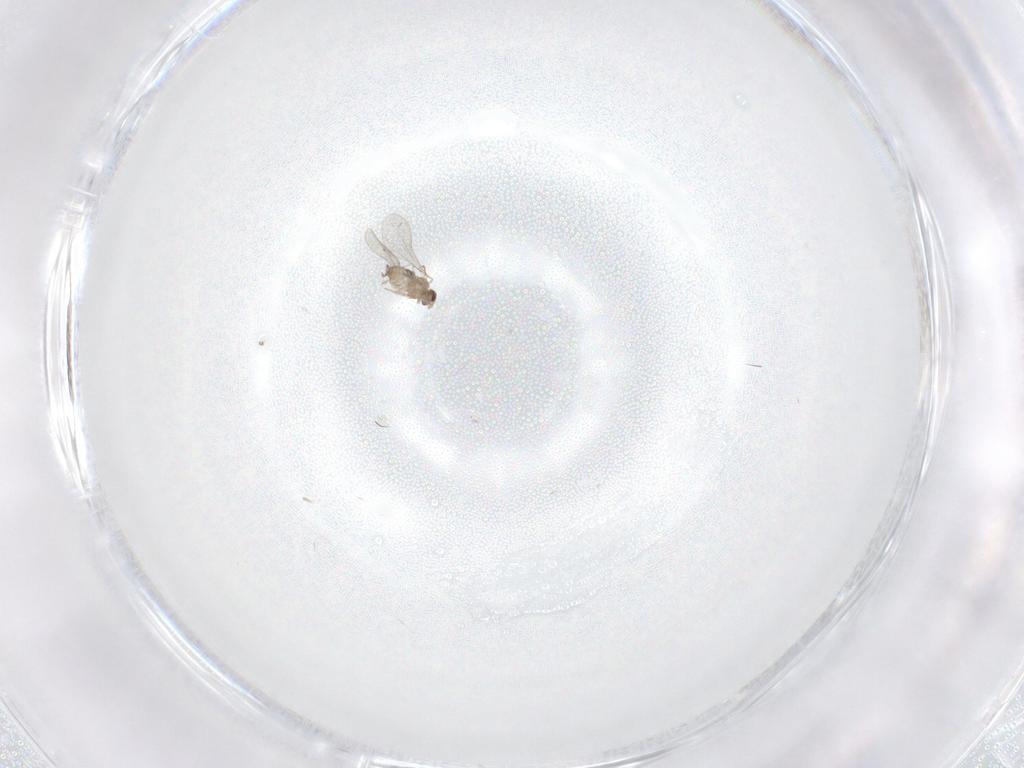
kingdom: Animalia
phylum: Arthropoda
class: Insecta
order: Diptera
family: Cecidomyiidae
